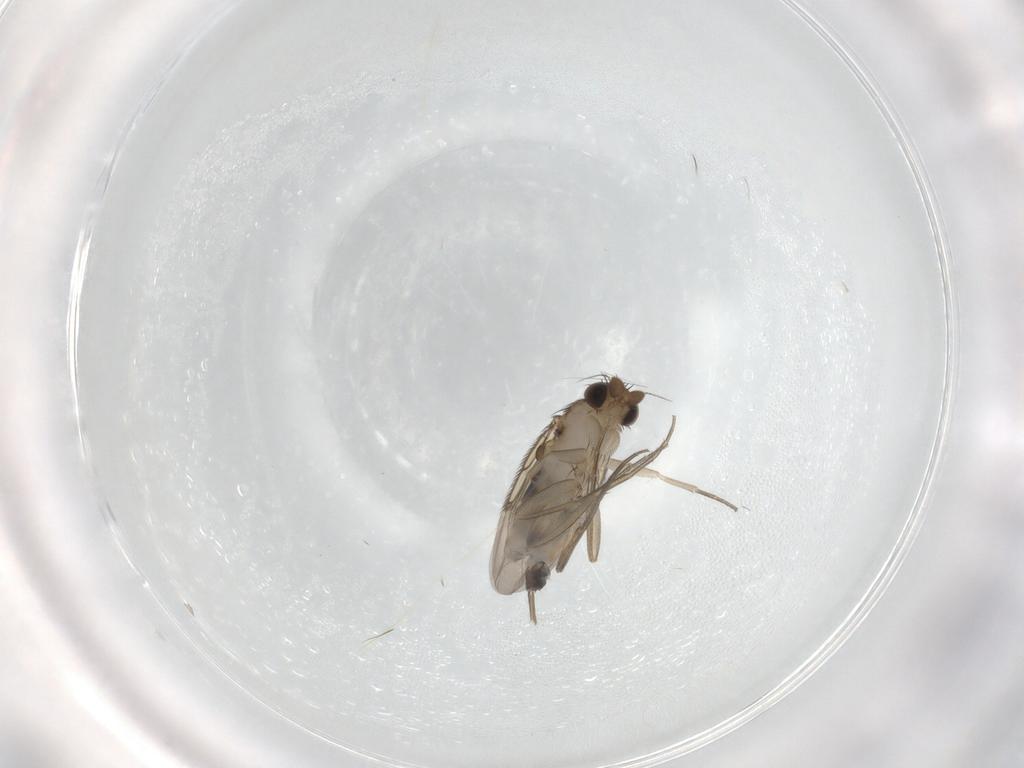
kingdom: Animalia
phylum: Arthropoda
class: Insecta
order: Diptera
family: Phoridae
